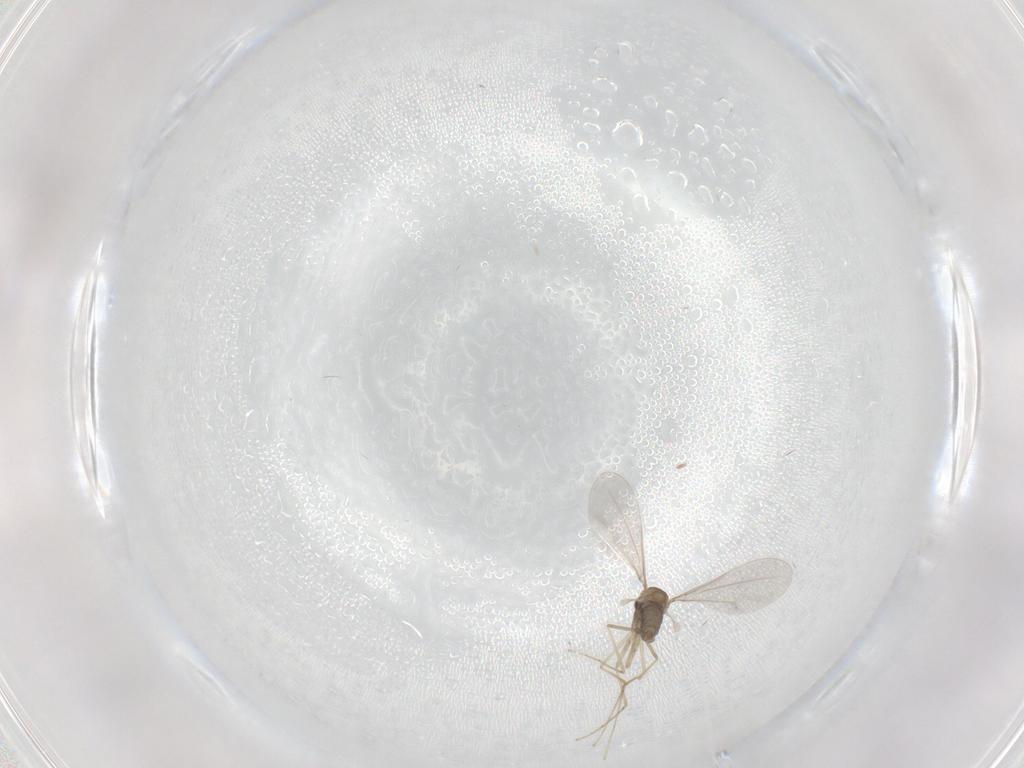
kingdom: Animalia
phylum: Arthropoda
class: Insecta
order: Diptera
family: Cecidomyiidae
